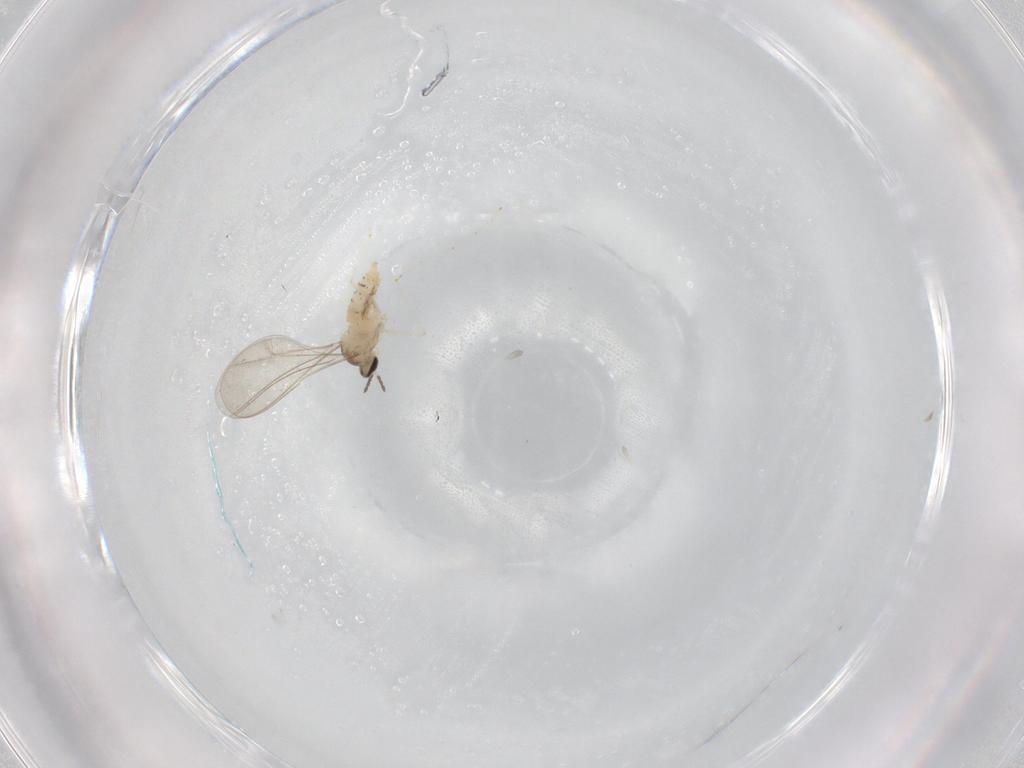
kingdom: Animalia
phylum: Arthropoda
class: Insecta
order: Diptera
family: Cecidomyiidae
